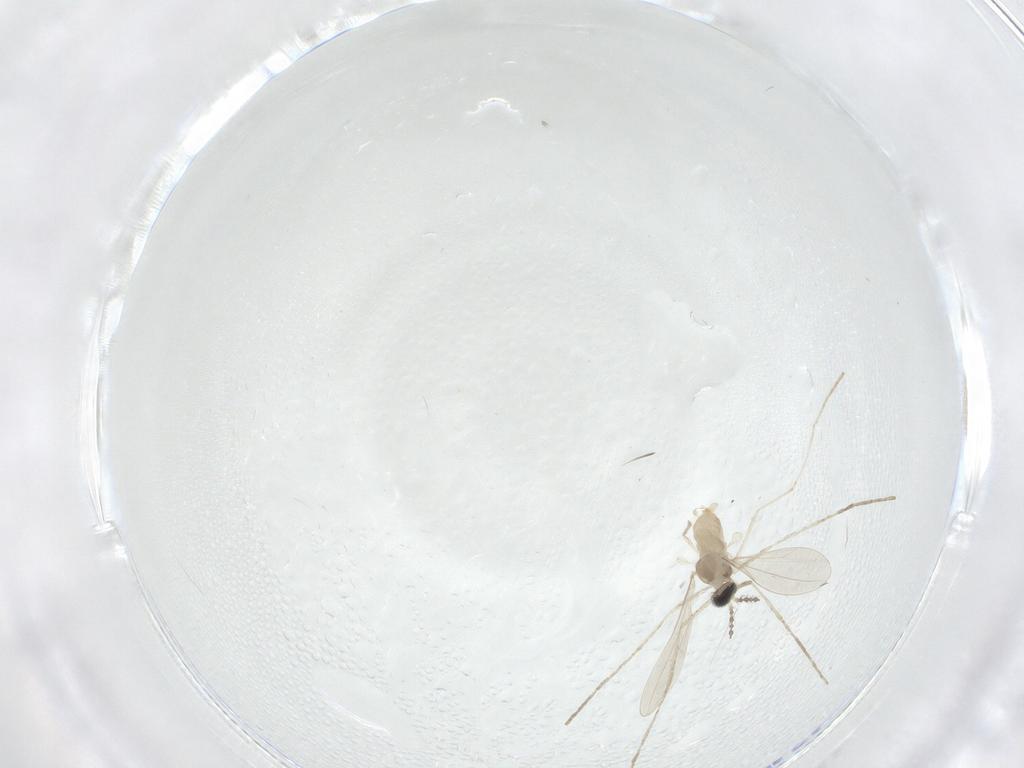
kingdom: Animalia
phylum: Arthropoda
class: Insecta
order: Diptera
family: Cecidomyiidae
